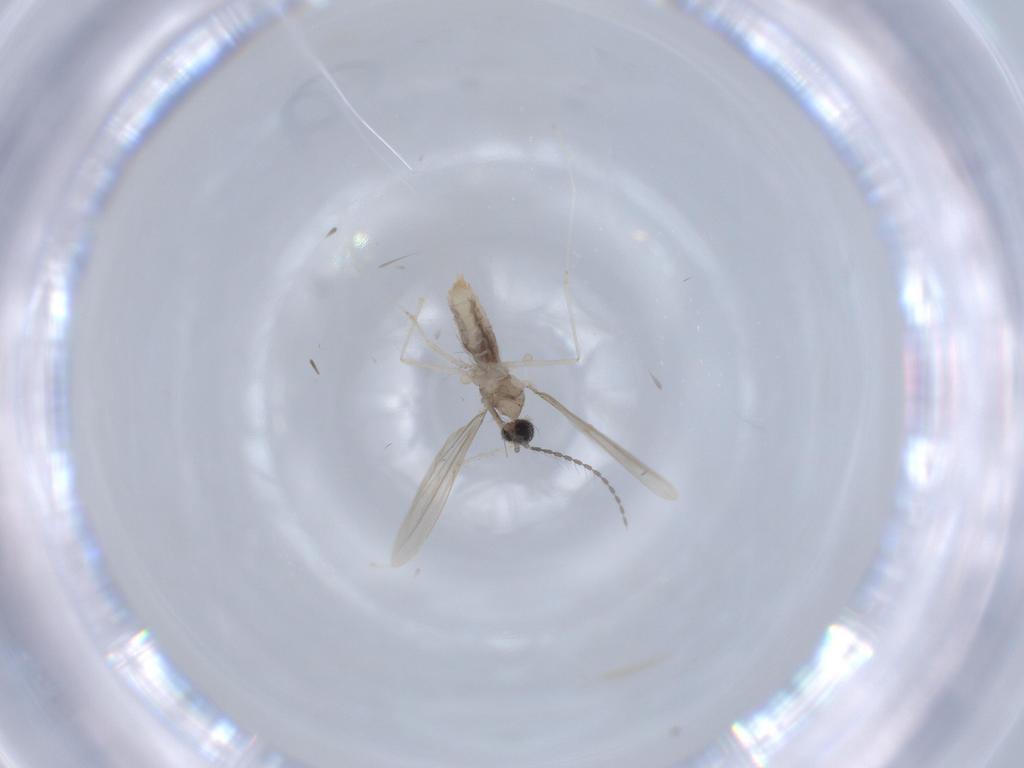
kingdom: Animalia
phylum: Arthropoda
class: Insecta
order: Diptera
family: Cecidomyiidae
